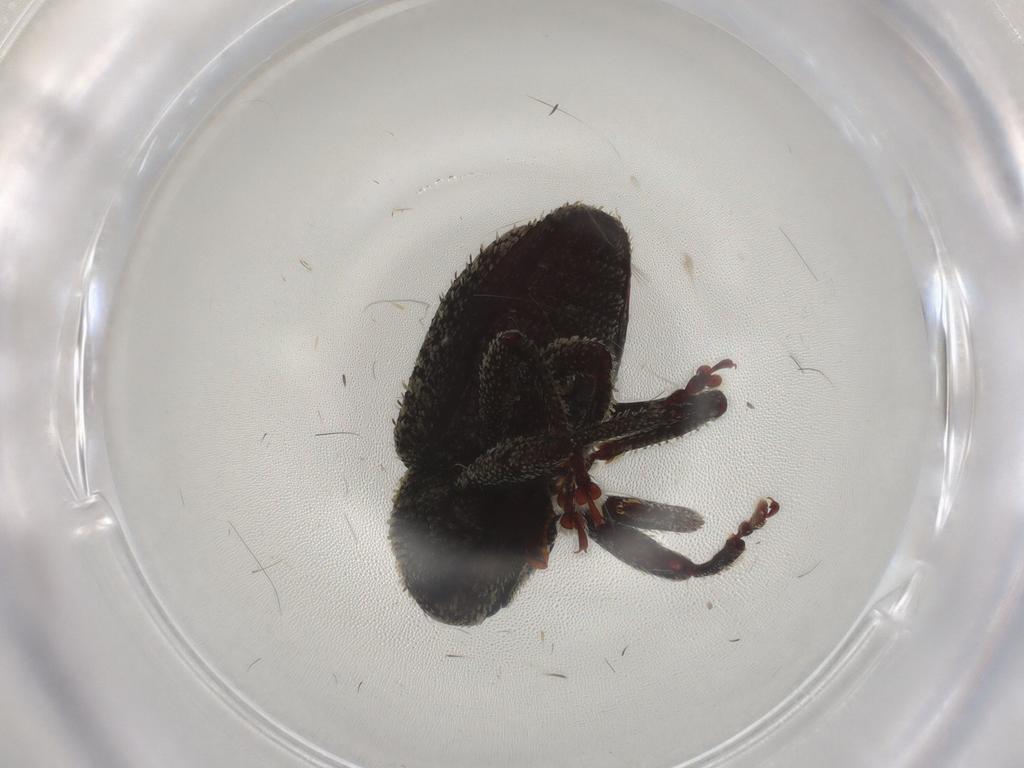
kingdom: Animalia
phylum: Arthropoda
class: Insecta
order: Coleoptera
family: Curculionidae
